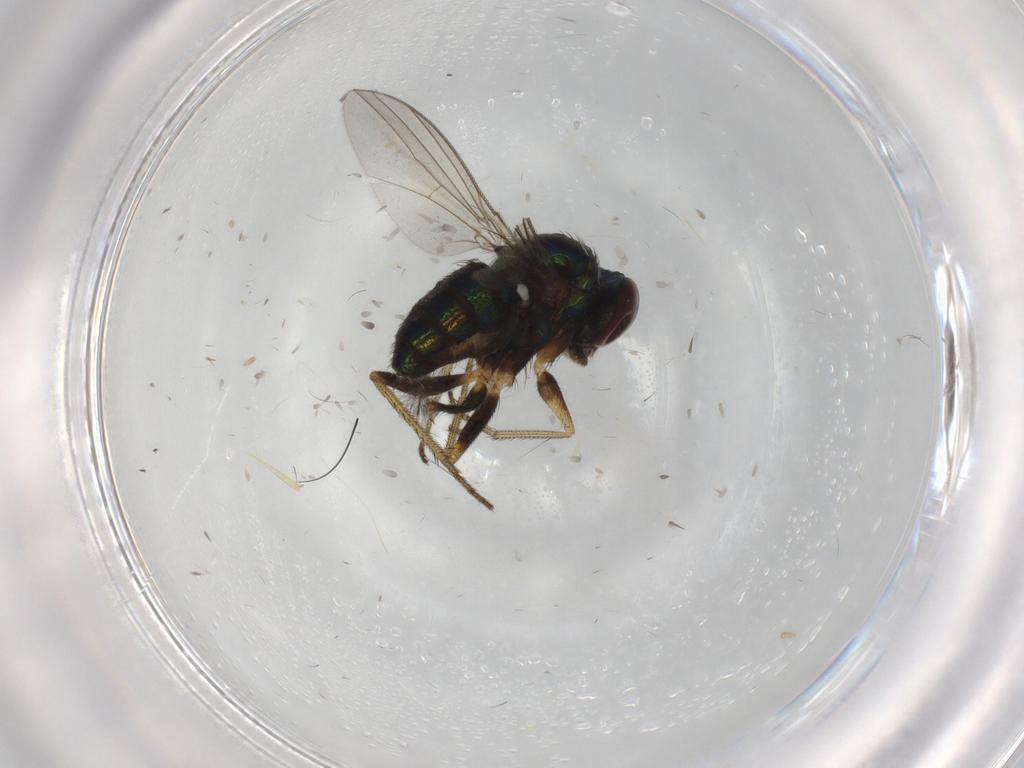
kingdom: Animalia
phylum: Arthropoda
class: Insecta
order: Diptera
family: Chironomidae
